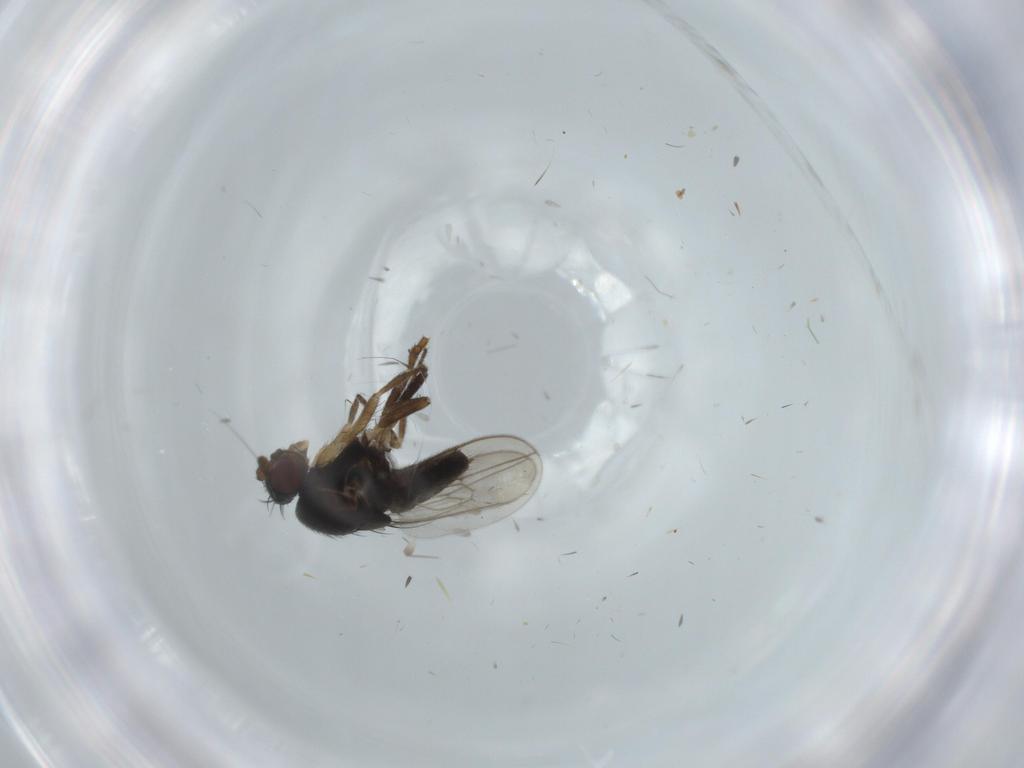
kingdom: Animalia
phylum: Arthropoda
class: Insecta
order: Diptera
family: Sphaeroceridae
